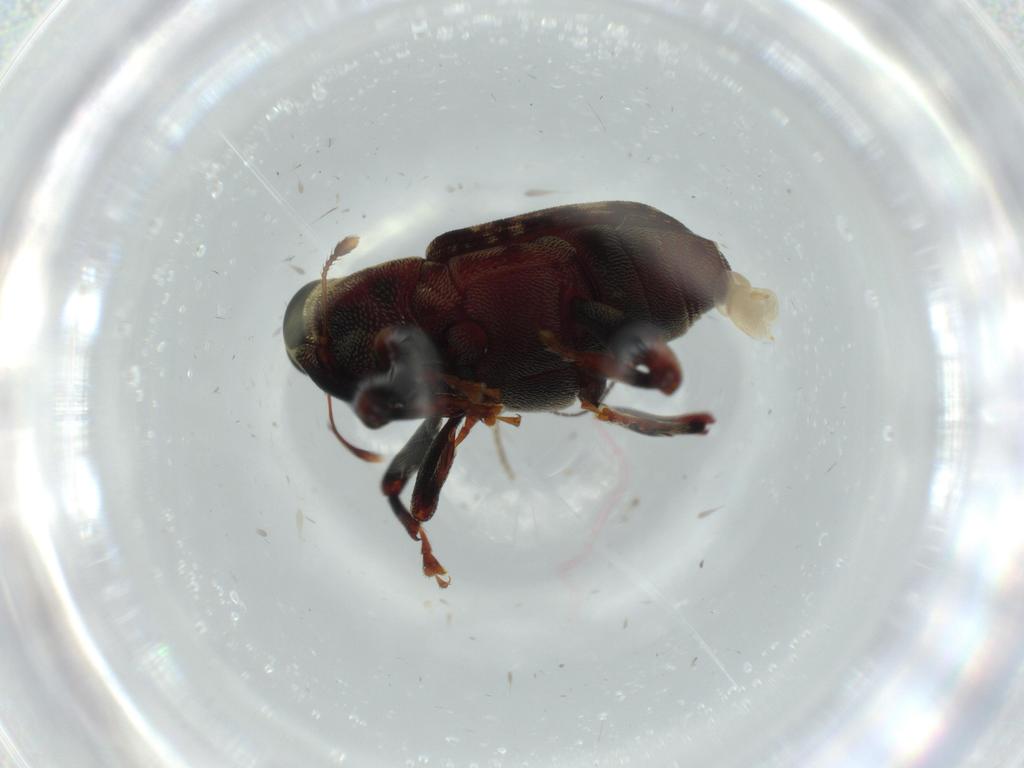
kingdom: Animalia
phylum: Arthropoda
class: Insecta
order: Coleoptera
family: Curculionidae
